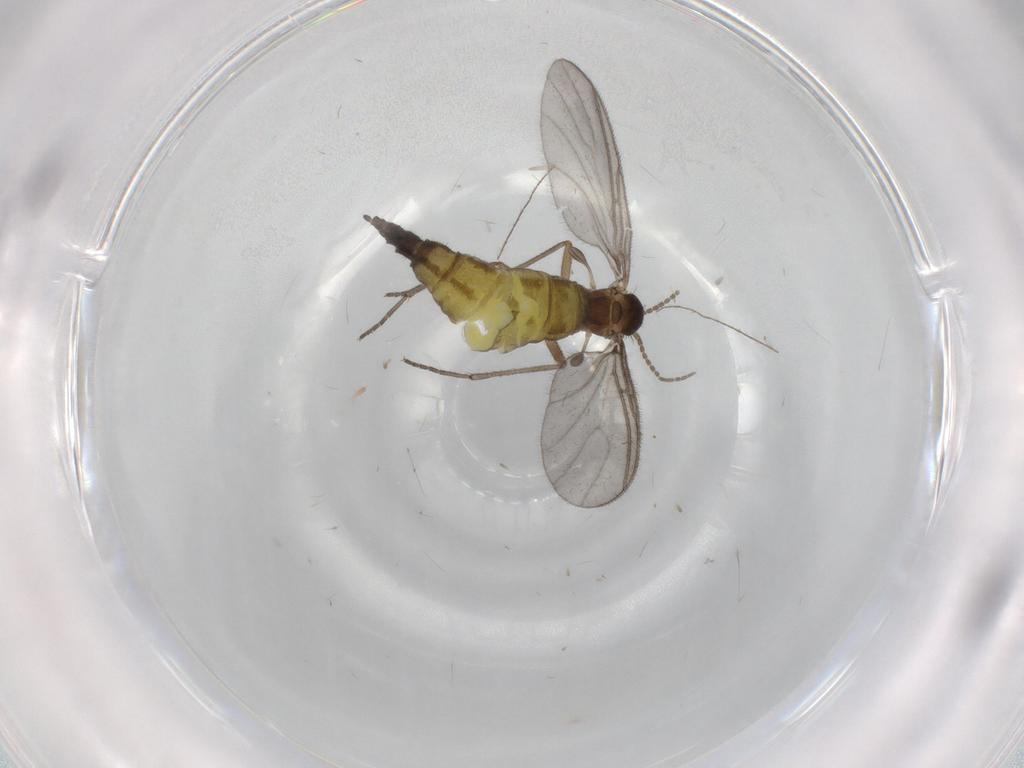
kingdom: Animalia
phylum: Arthropoda
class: Insecta
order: Diptera
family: Sciaridae
